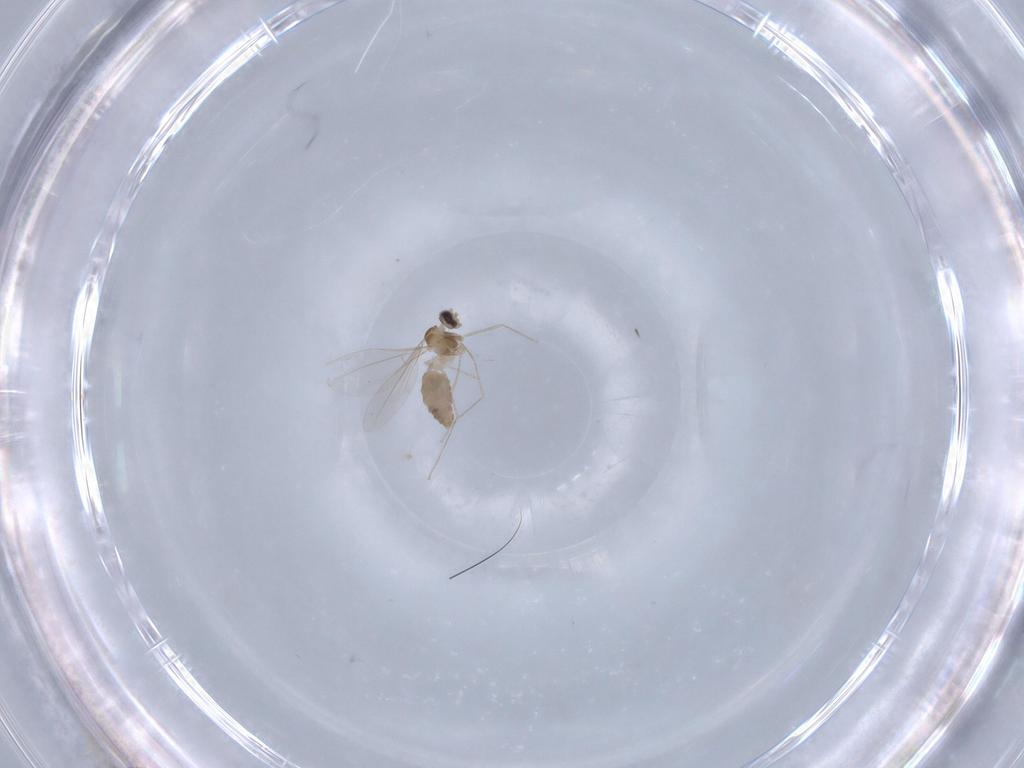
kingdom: Animalia
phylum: Arthropoda
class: Insecta
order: Diptera
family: Cecidomyiidae
